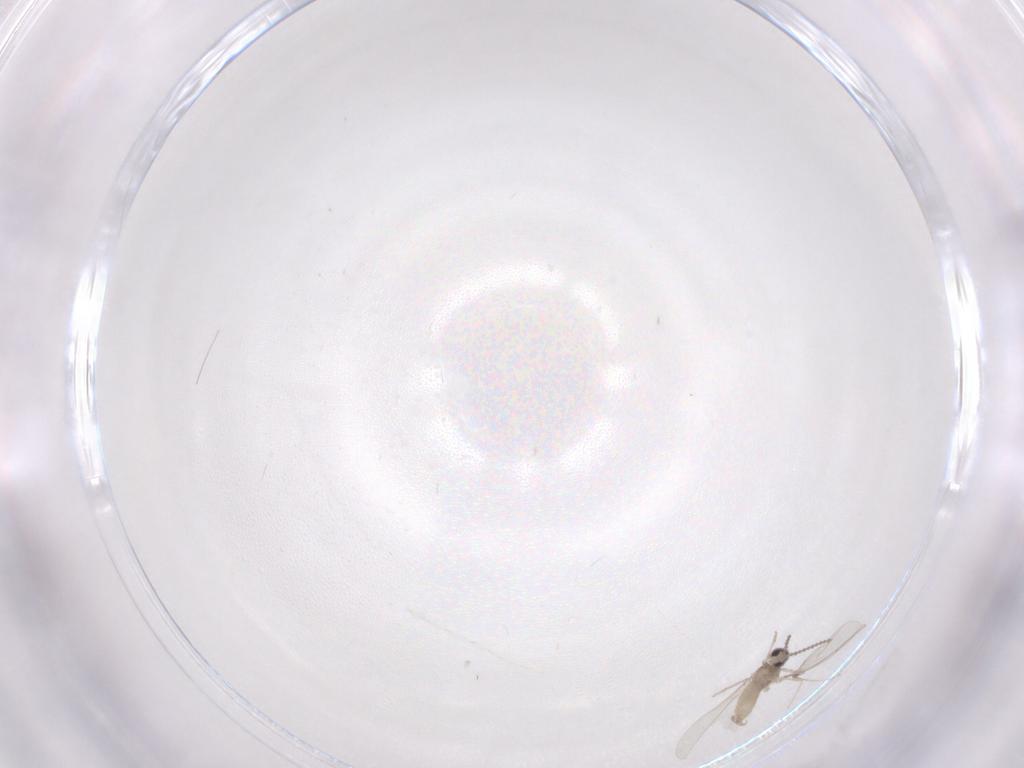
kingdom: Animalia
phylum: Arthropoda
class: Insecta
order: Diptera
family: Cecidomyiidae
